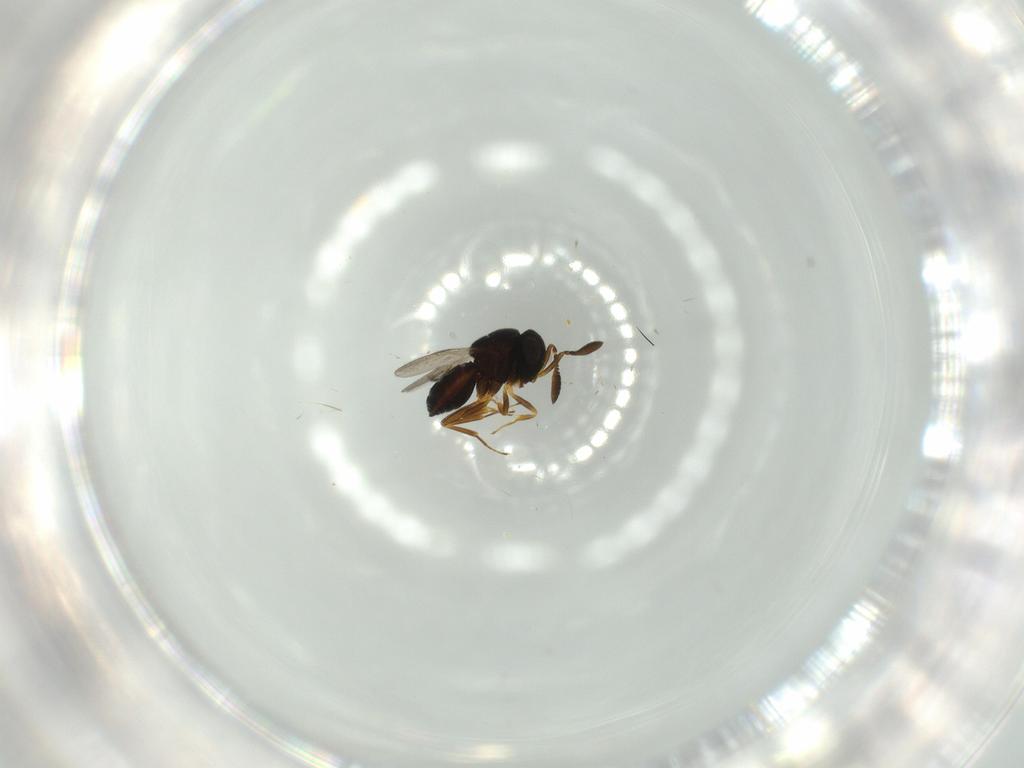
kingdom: Animalia
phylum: Arthropoda
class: Insecta
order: Hymenoptera
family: Scelionidae
